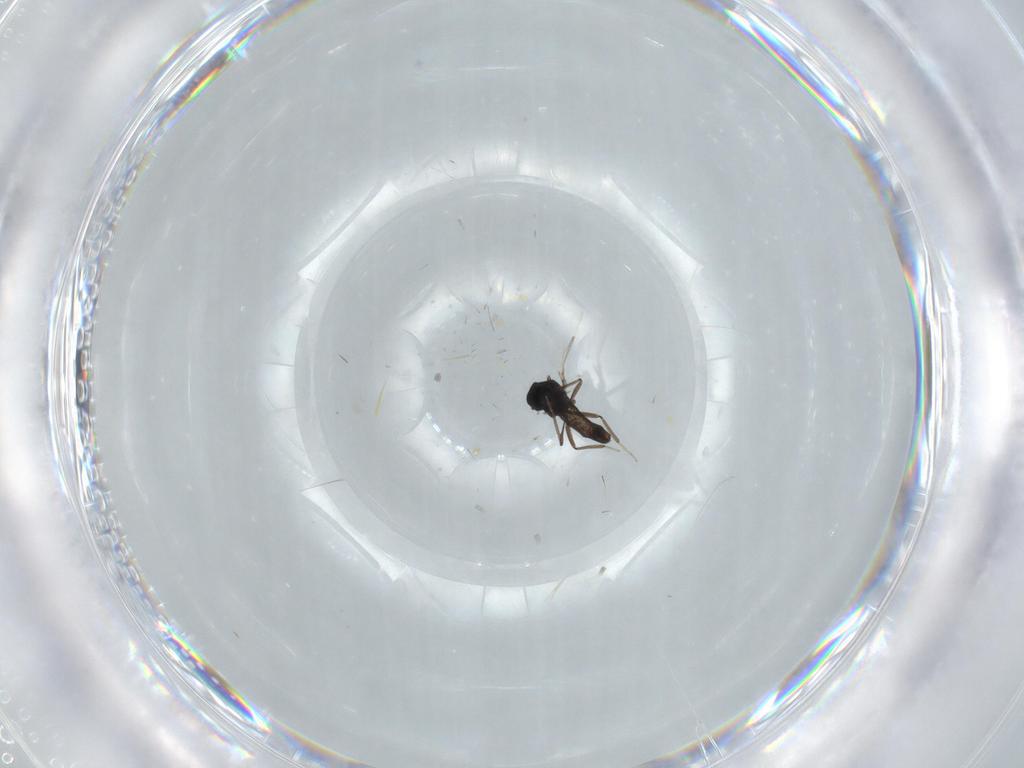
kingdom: Animalia
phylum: Arthropoda
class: Insecta
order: Diptera
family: Ceratopogonidae
